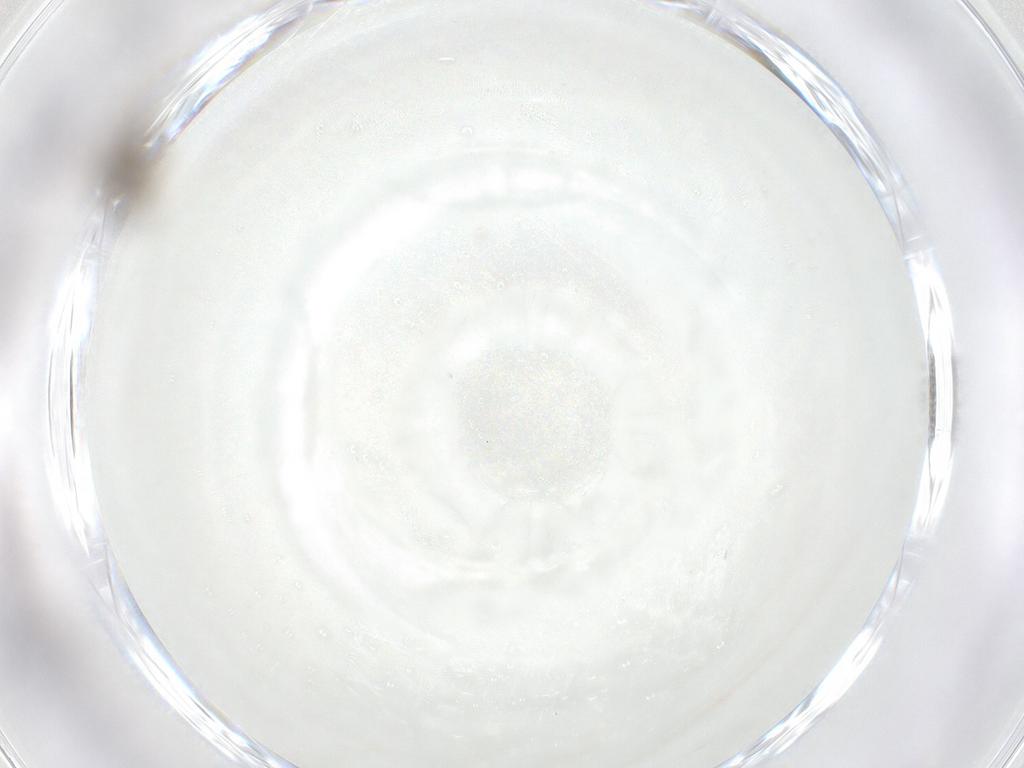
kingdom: Animalia
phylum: Arthropoda
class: Insecta
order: Diptera
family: Cecidomyiidae
